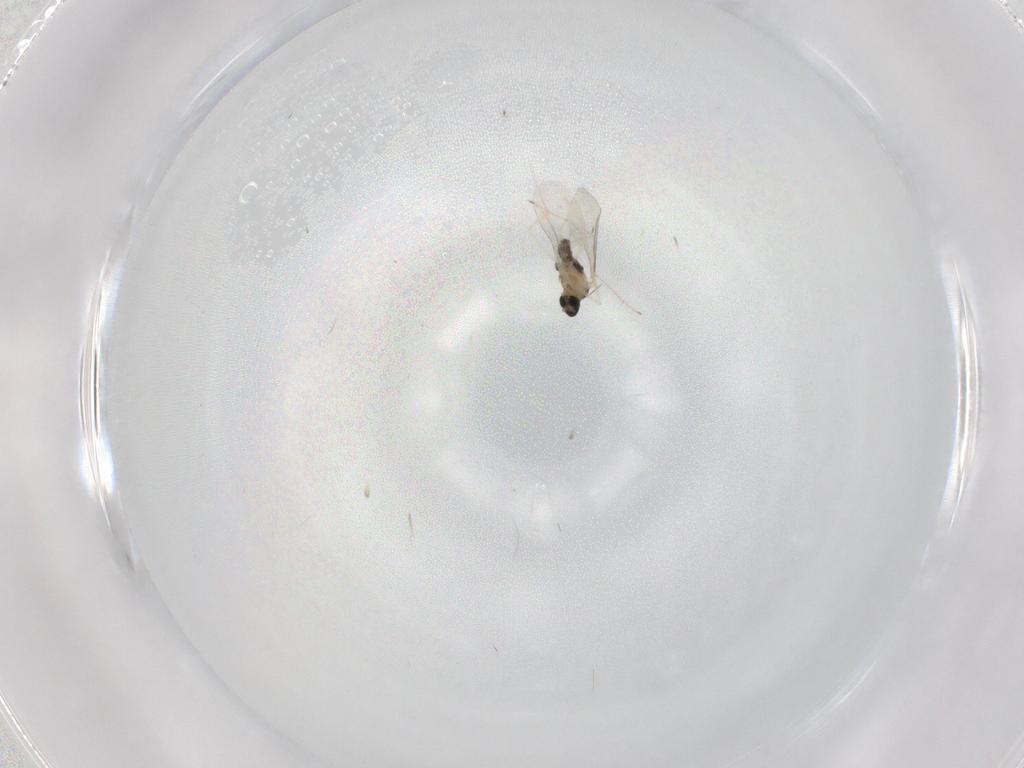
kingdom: Animalia
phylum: Arthropoda
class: Insecta
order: Diptera
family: Cecidomyiidae
